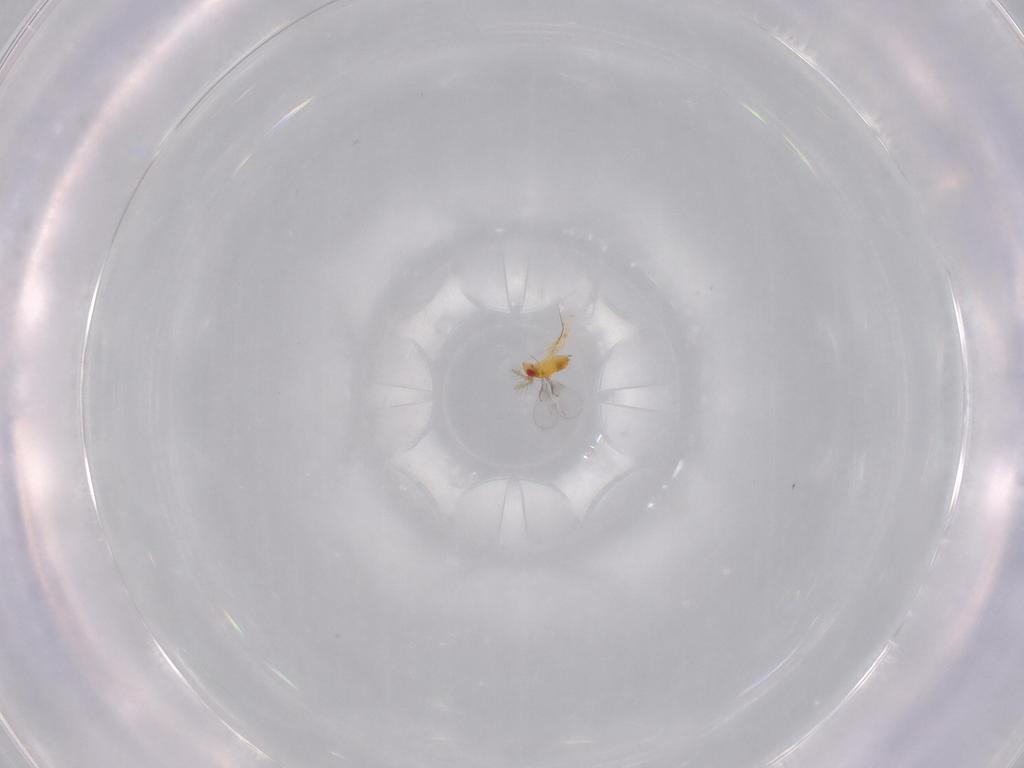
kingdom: Animalia
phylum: Arthropoda
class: Insecta
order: Hymenoptera
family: Trichogrammatidae
